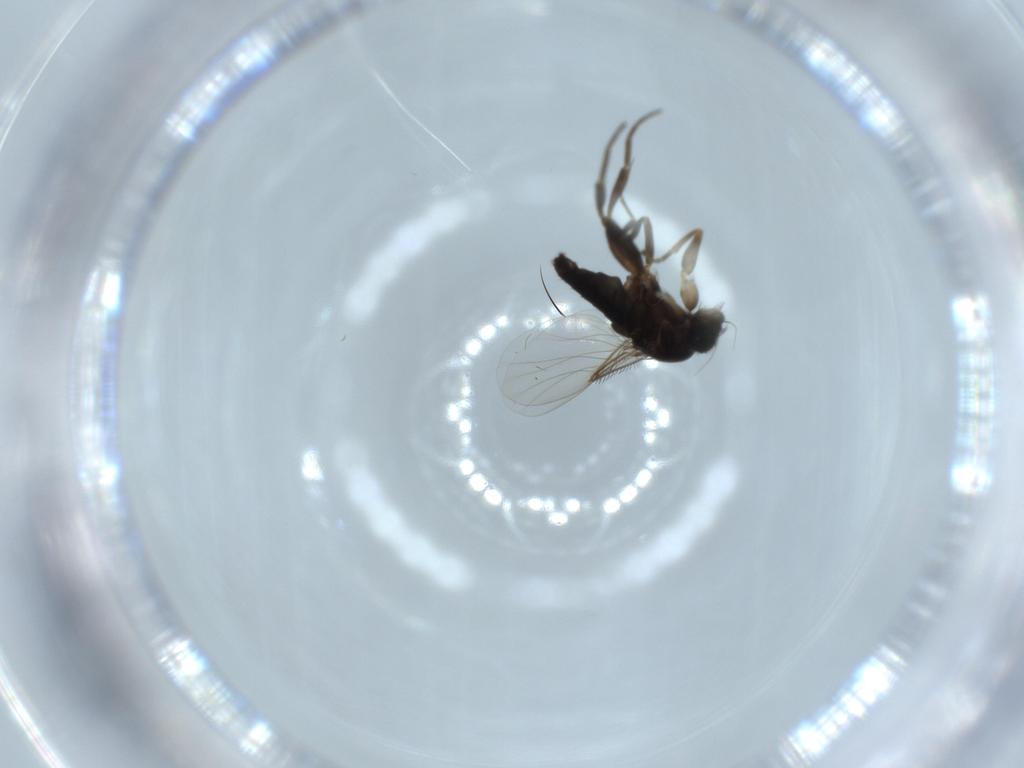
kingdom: Animalia
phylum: Arthropoda
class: Insecta
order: Diptera
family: Phoridae
